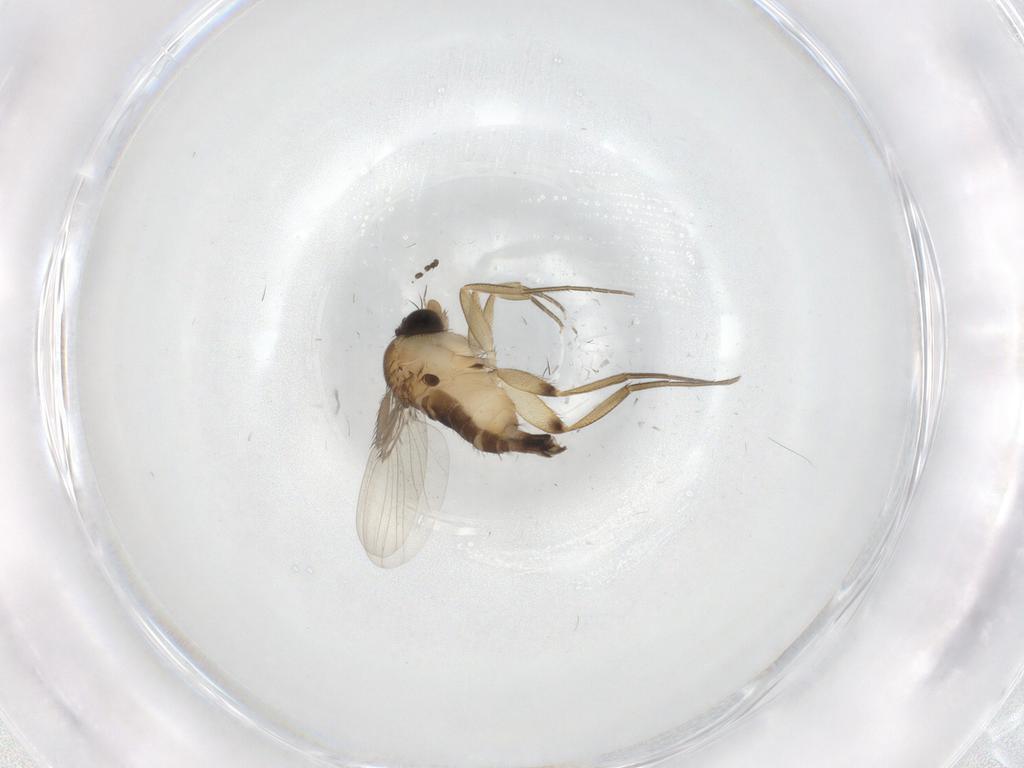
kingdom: Animalia
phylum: Arthropoda
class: Insecta
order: Diptera
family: Phoridae
